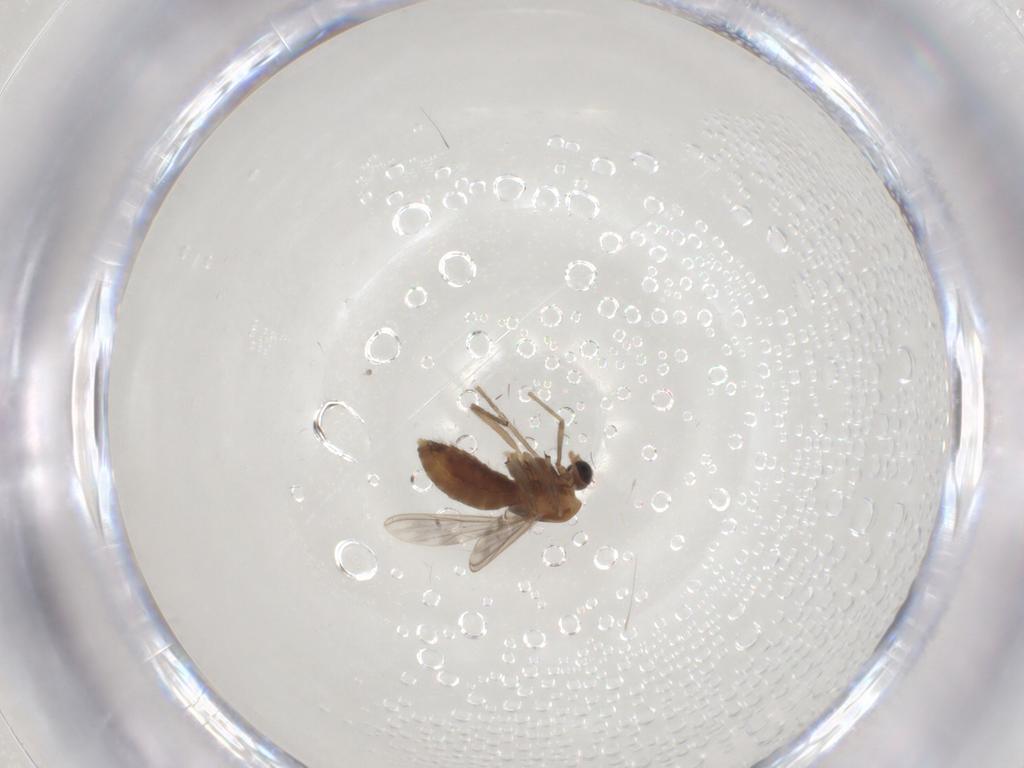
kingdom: Animalia
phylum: Arthropoda
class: Insecta
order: Diptera
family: Chironomidae
